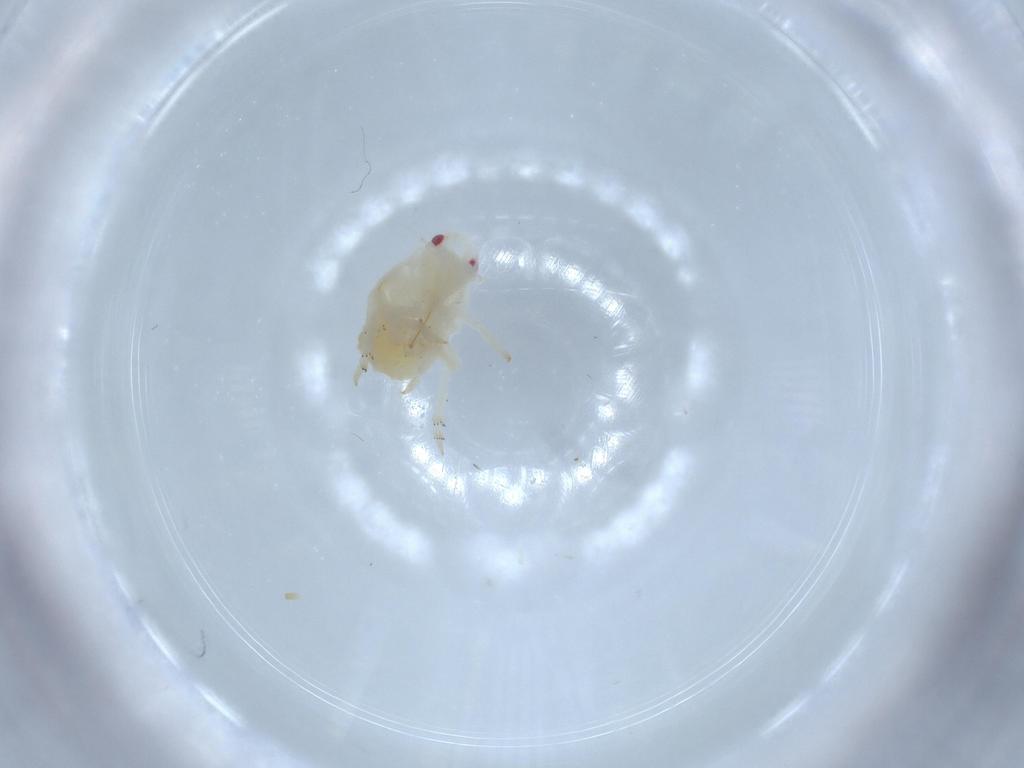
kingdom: Animalia
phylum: Arthropoda
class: Insecta
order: Hemiptera
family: Flatidae
